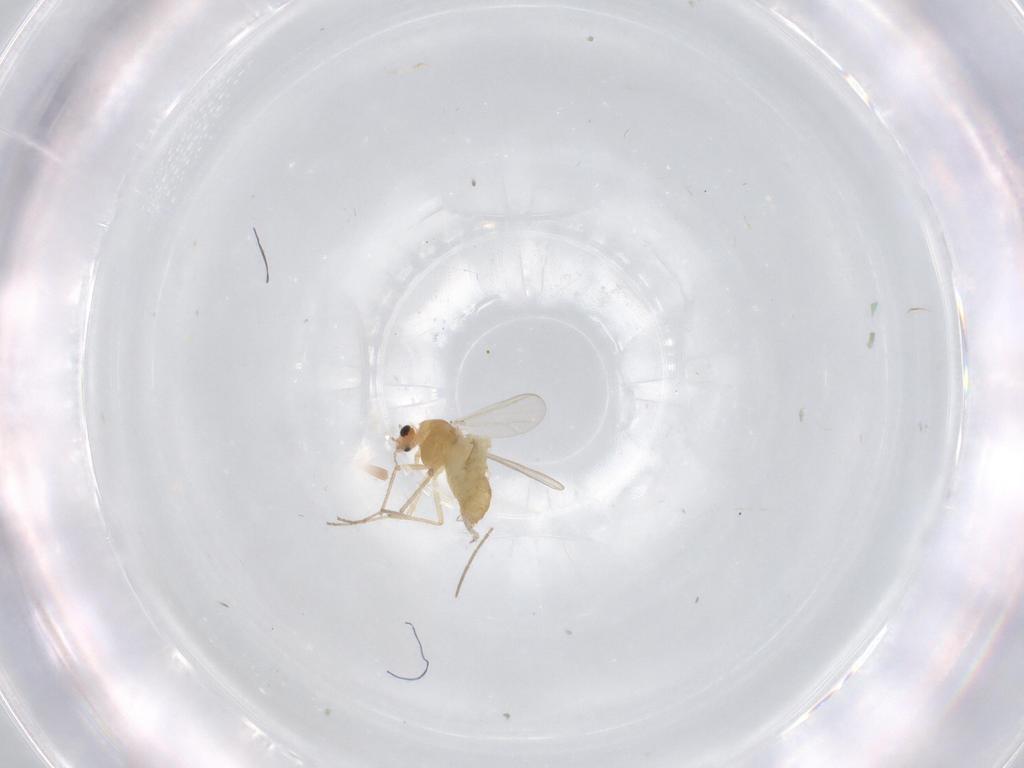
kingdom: Animalia
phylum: Arthropoda
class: Insecta
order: Diptera
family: Chironomidae
